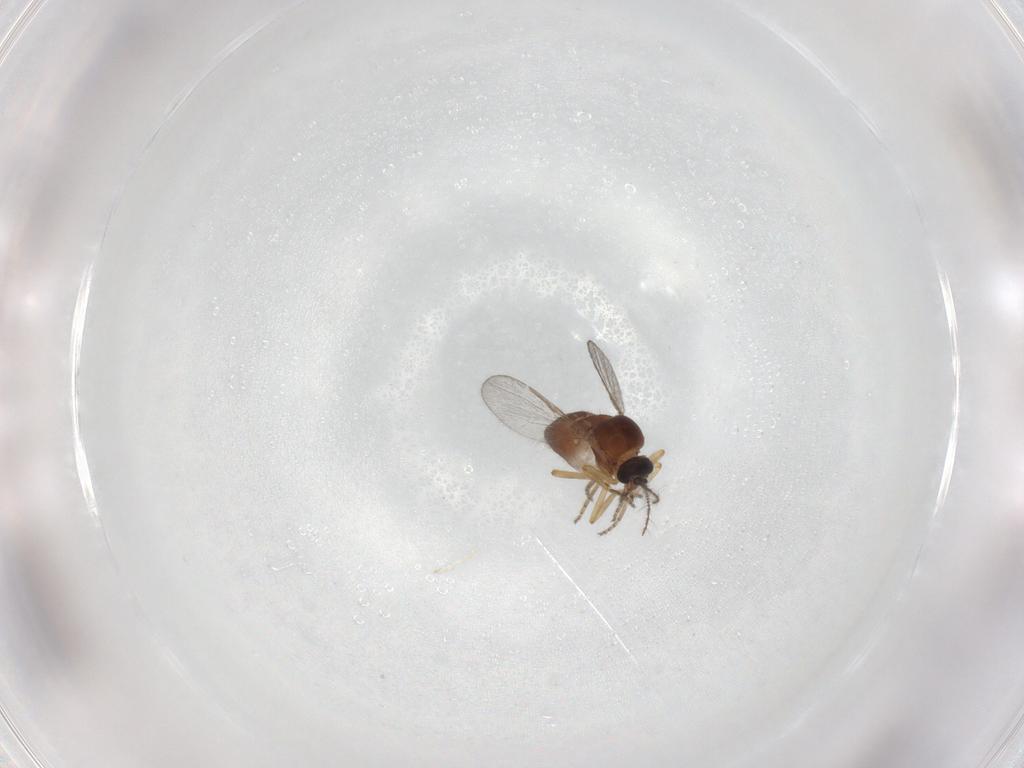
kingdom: Animalia
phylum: Arthropoda
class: Insecta
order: Diptera
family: Ceratopogonidae
